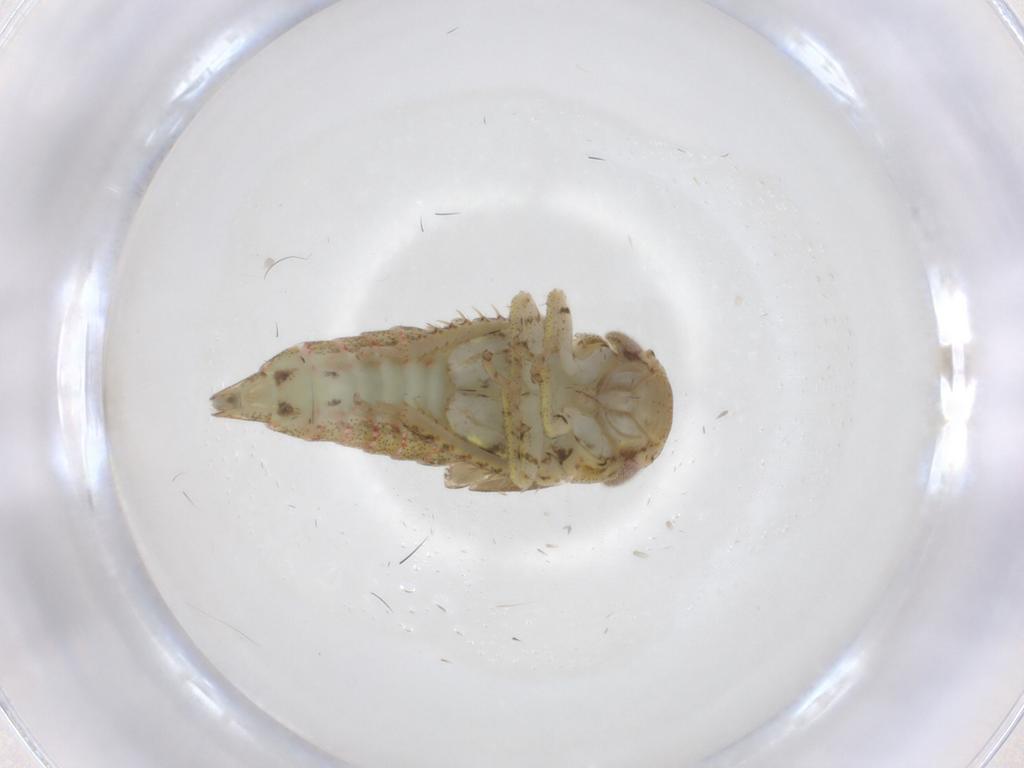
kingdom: Animalia
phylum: Arthropoda
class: Insecta
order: Hemiptera
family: Cicadellidae
